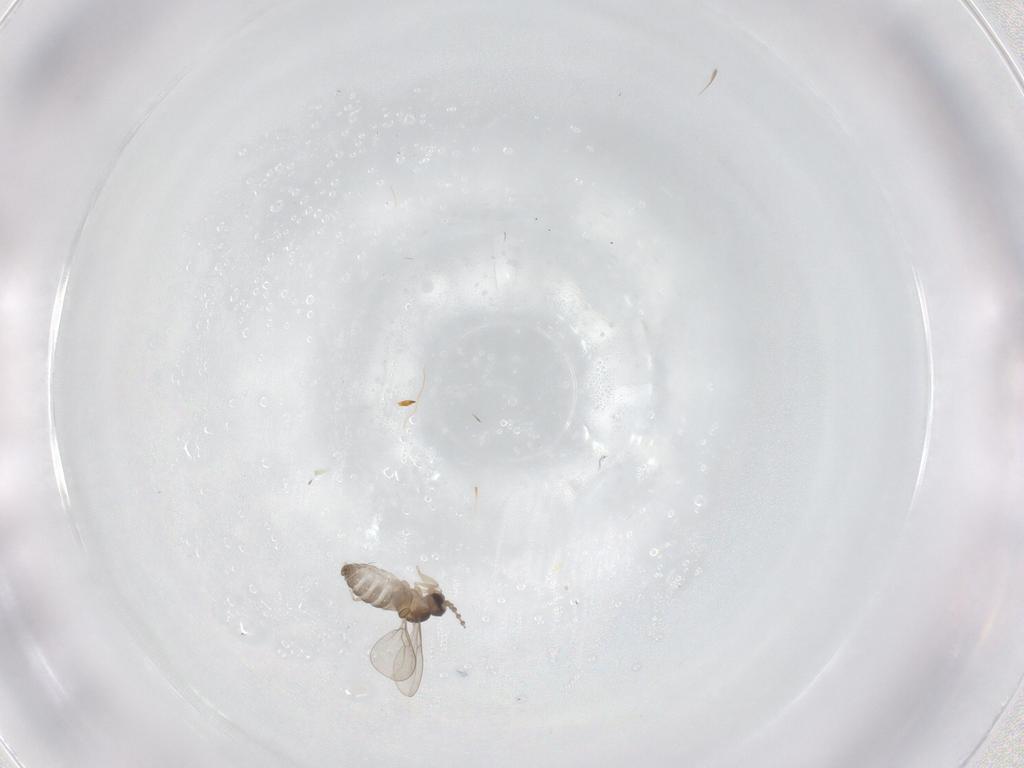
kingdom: Animalia
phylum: Arthropoda
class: Insecta
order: Diptera
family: Cecidomyiidae
